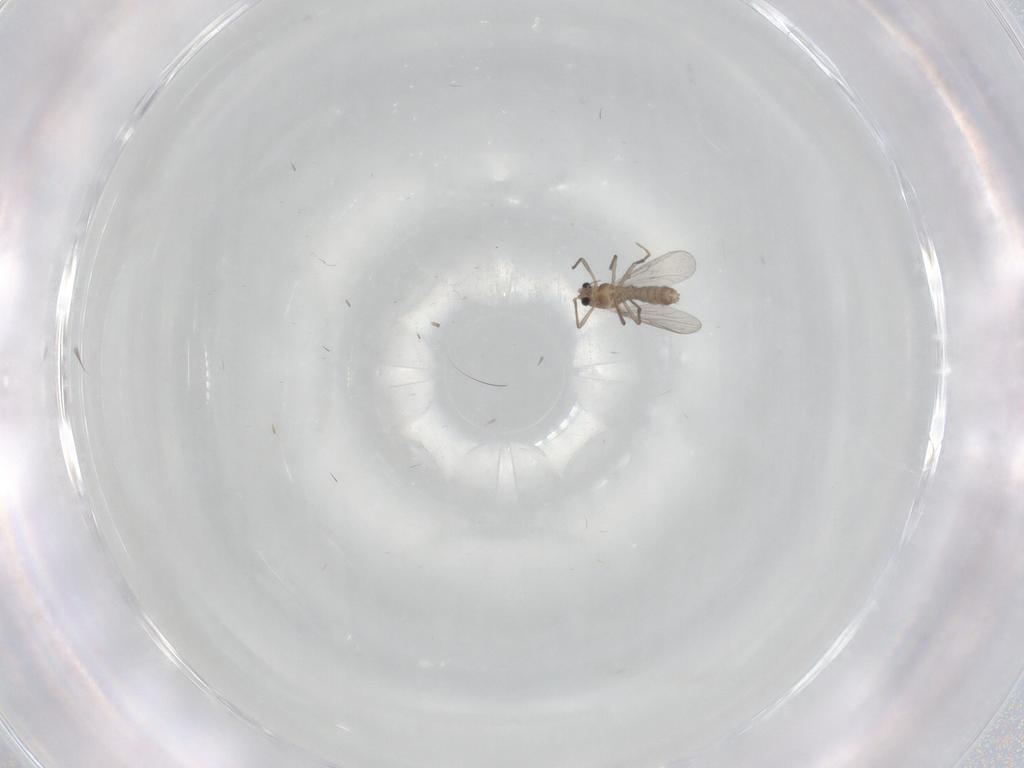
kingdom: Animalia
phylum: Arthropoda
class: Insecta
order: Diptera
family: Chironomidae
